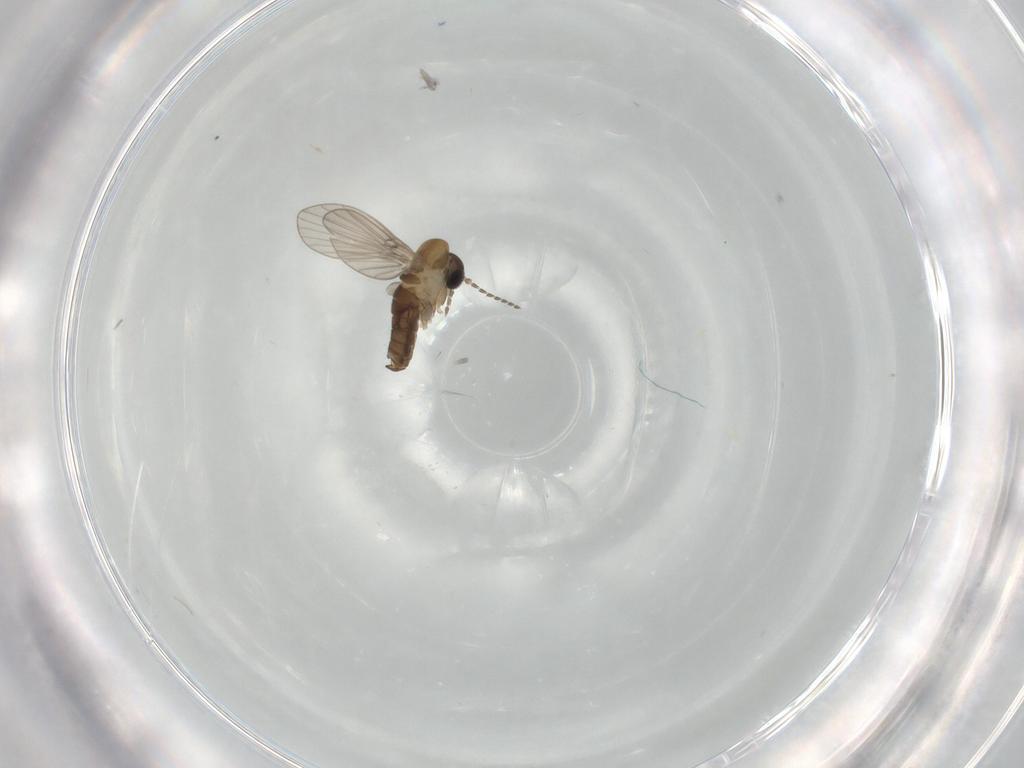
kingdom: Animalia
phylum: Arthropoda
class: Insecta
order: Diptera
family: Psychodidae
